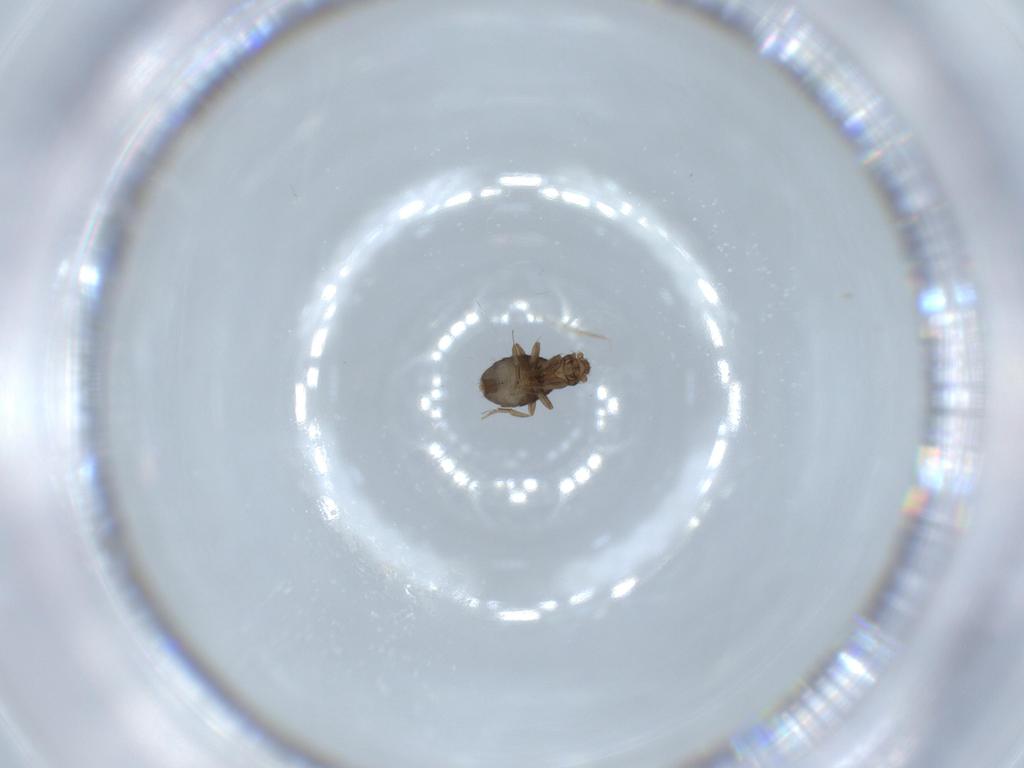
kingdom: Animalia
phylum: Arthropoda
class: Insecta
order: Diptera
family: Phoridae
